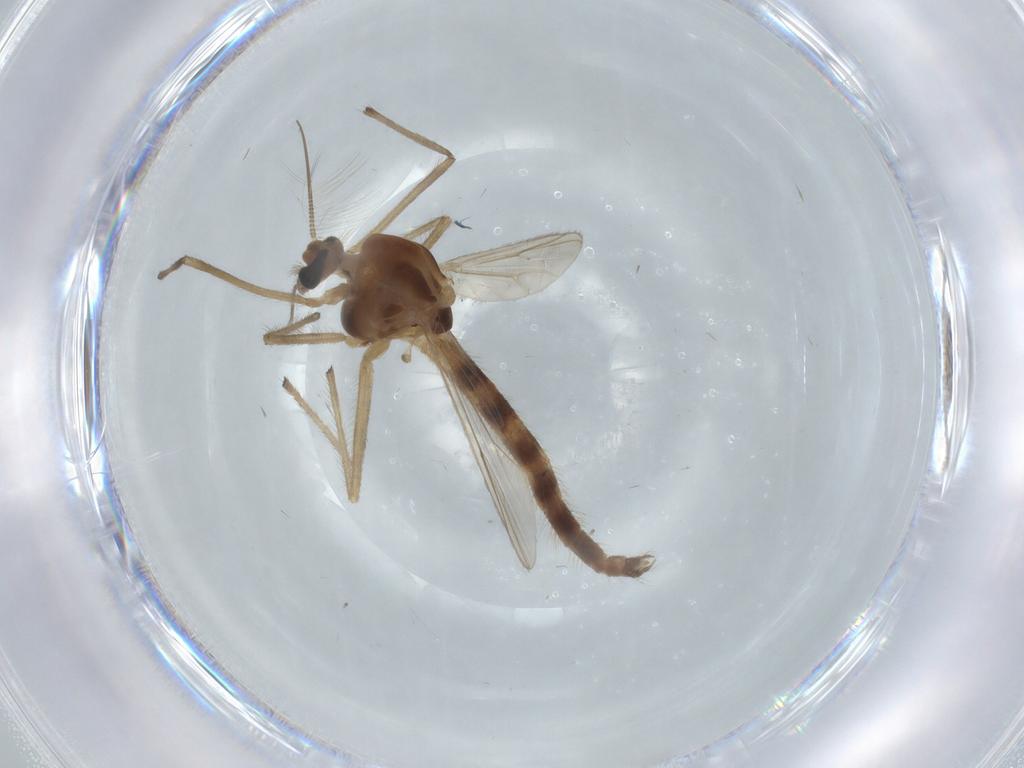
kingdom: Animalia
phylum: Arthropoda
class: Insecta
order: Diptera
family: Chironomidae
